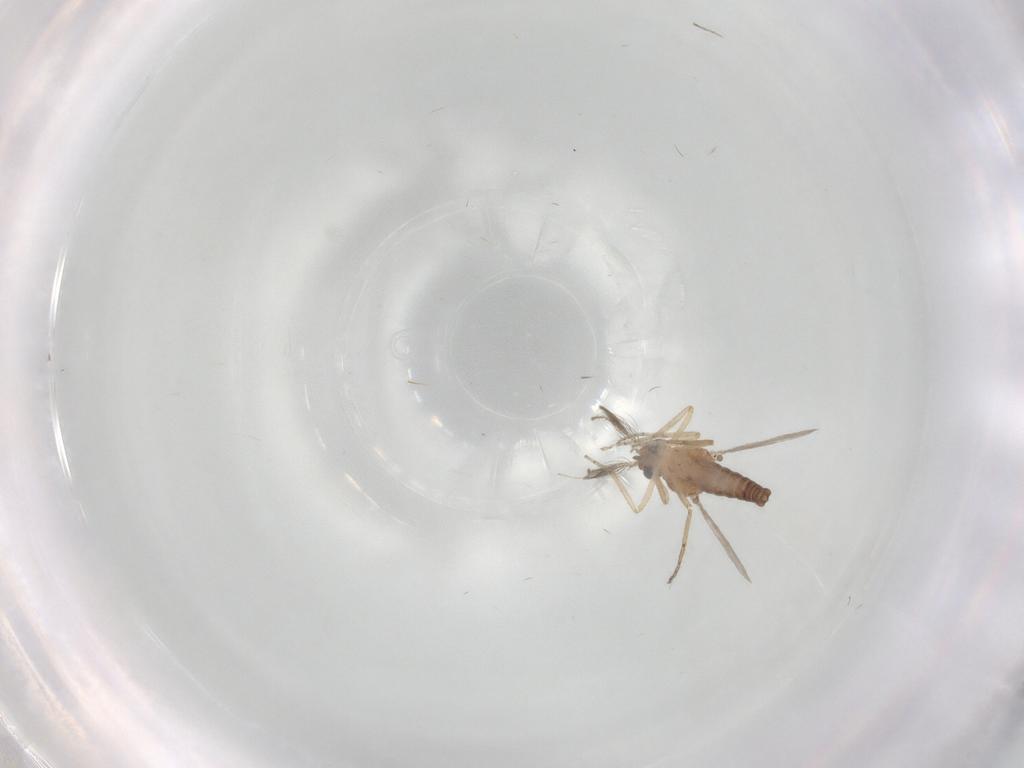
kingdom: Animalia
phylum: Arthropoda
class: Insecta
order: Diptera
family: Ceratopogonidae
